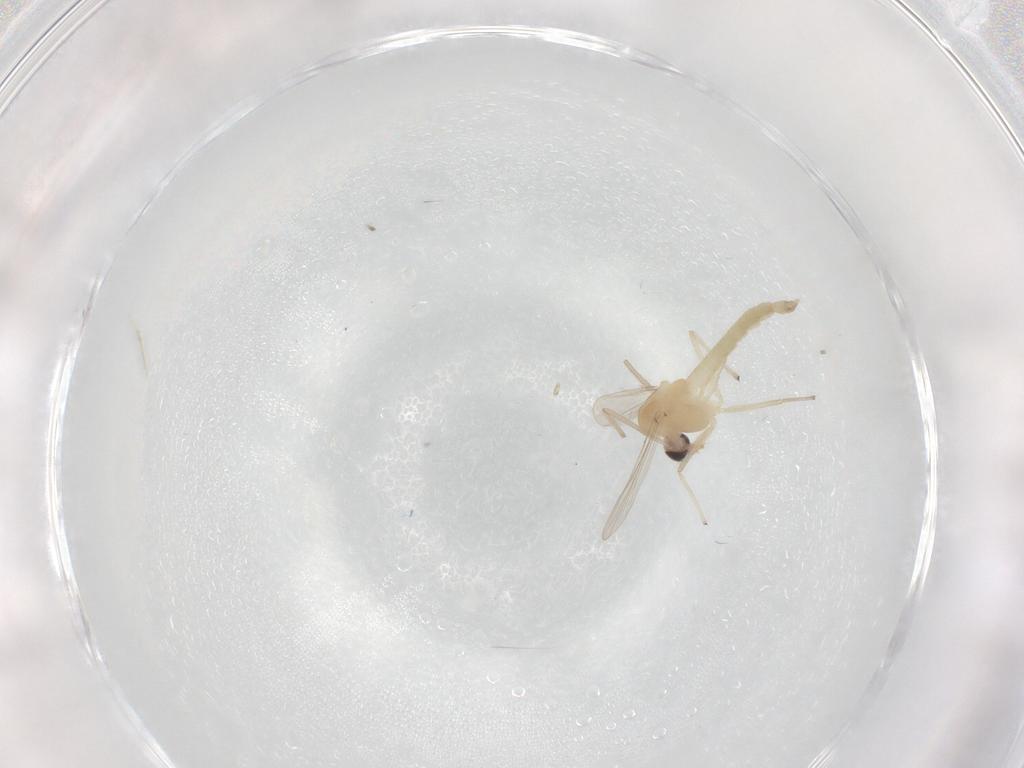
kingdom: Animalia
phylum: Arthropoda
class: Insecta
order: Diptera
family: Chironomidae
